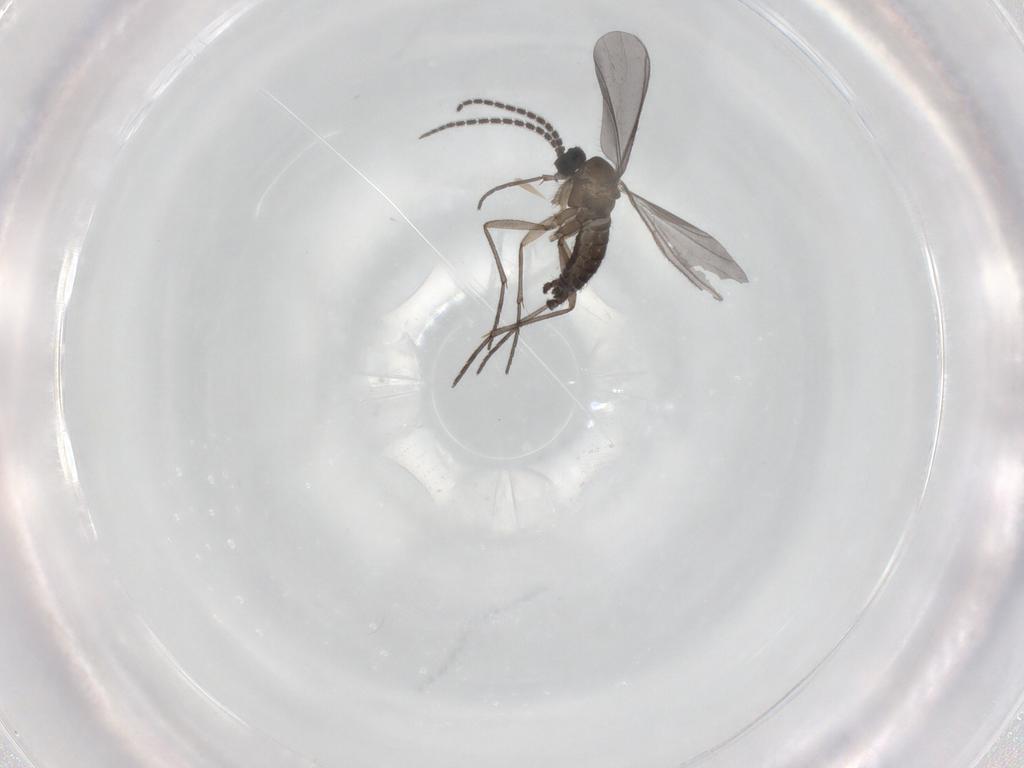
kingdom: Animalia
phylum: Arthropoda
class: Insecta
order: Diptera
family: Sciaridae
